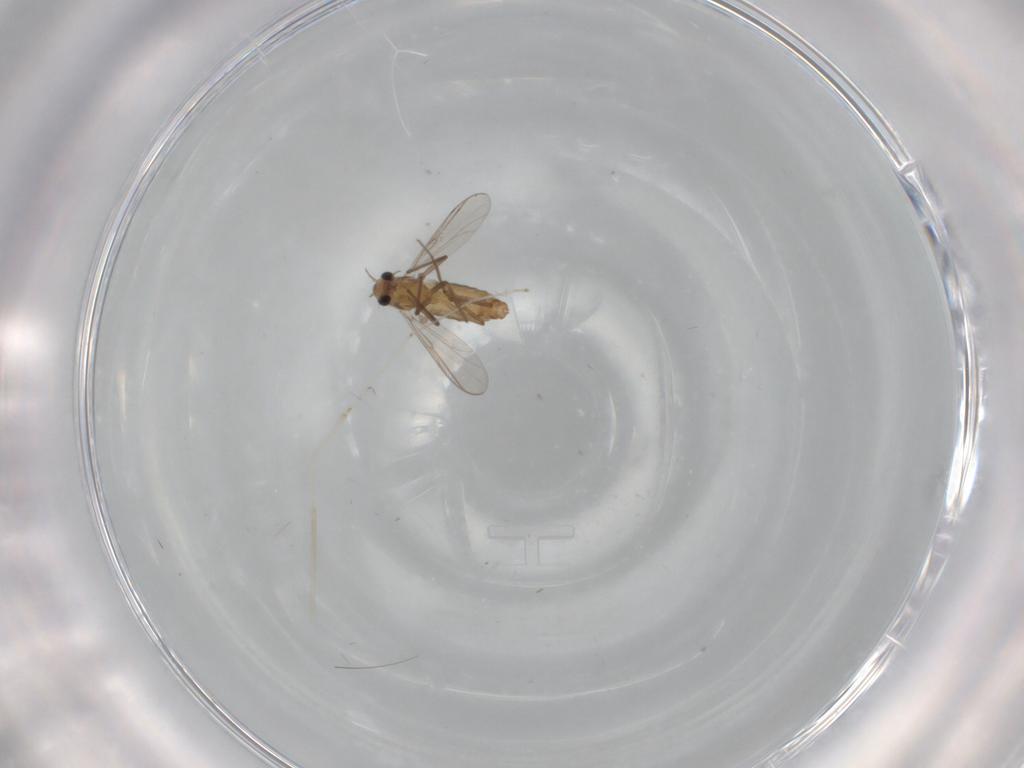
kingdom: Animalia
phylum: Arthropoda
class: Insecta
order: Diptera
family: Chironomidae
